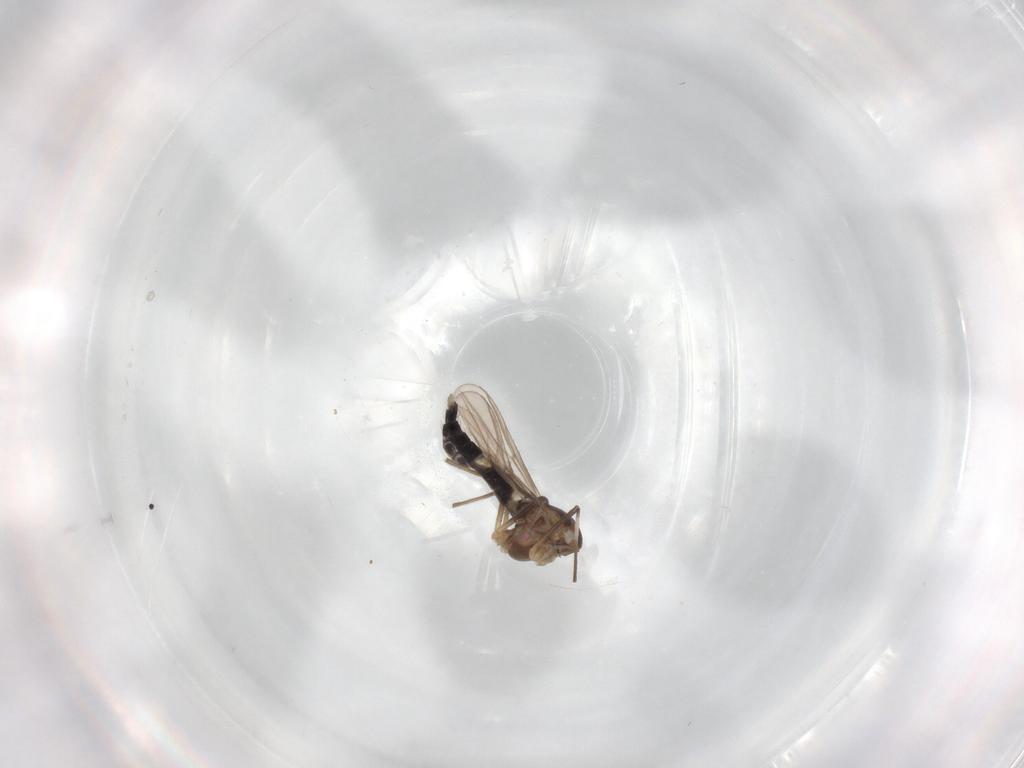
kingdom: Animalia
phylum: Arthropoda
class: Insecta
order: Diptera
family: Chironomidae
